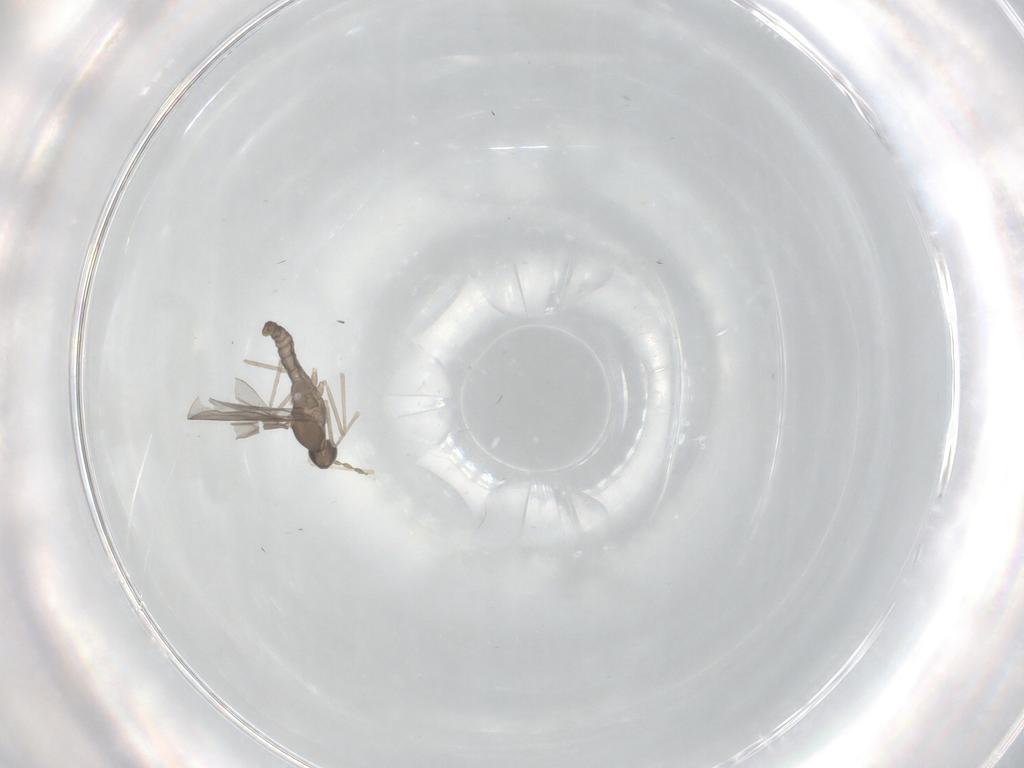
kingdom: Animalia
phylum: Arthropoda
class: Insecta
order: Diptera
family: Cecidomyiidae
